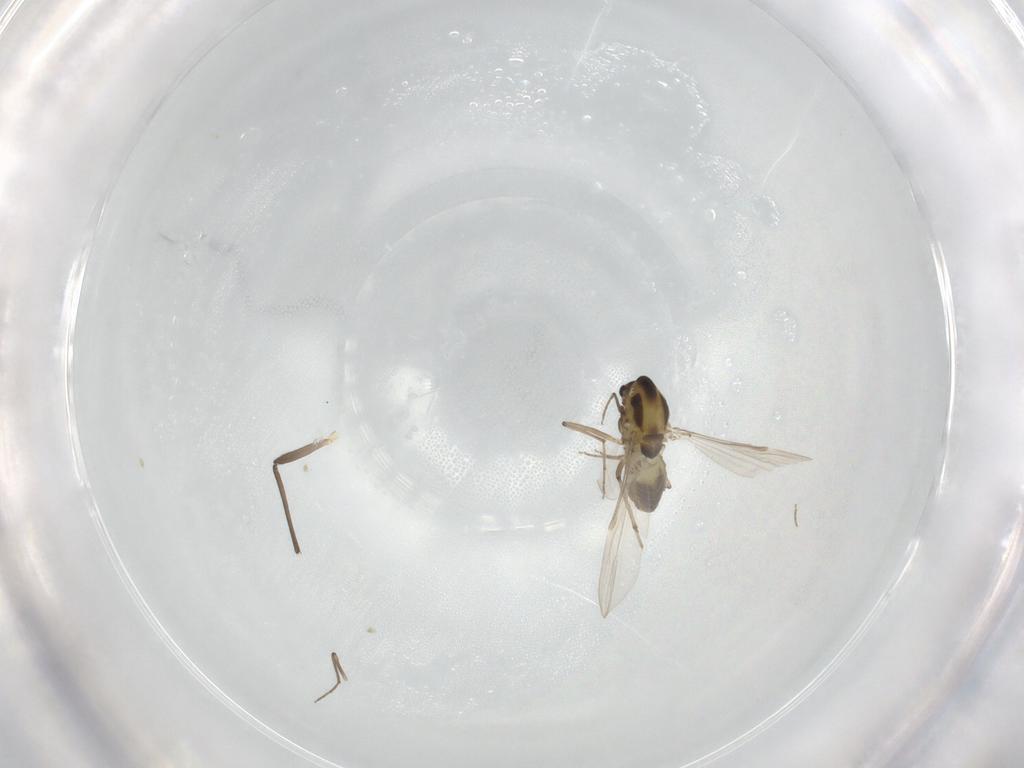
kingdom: Animalia
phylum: Arthropoda
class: Insecta
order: Diptera
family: Chironomidae
